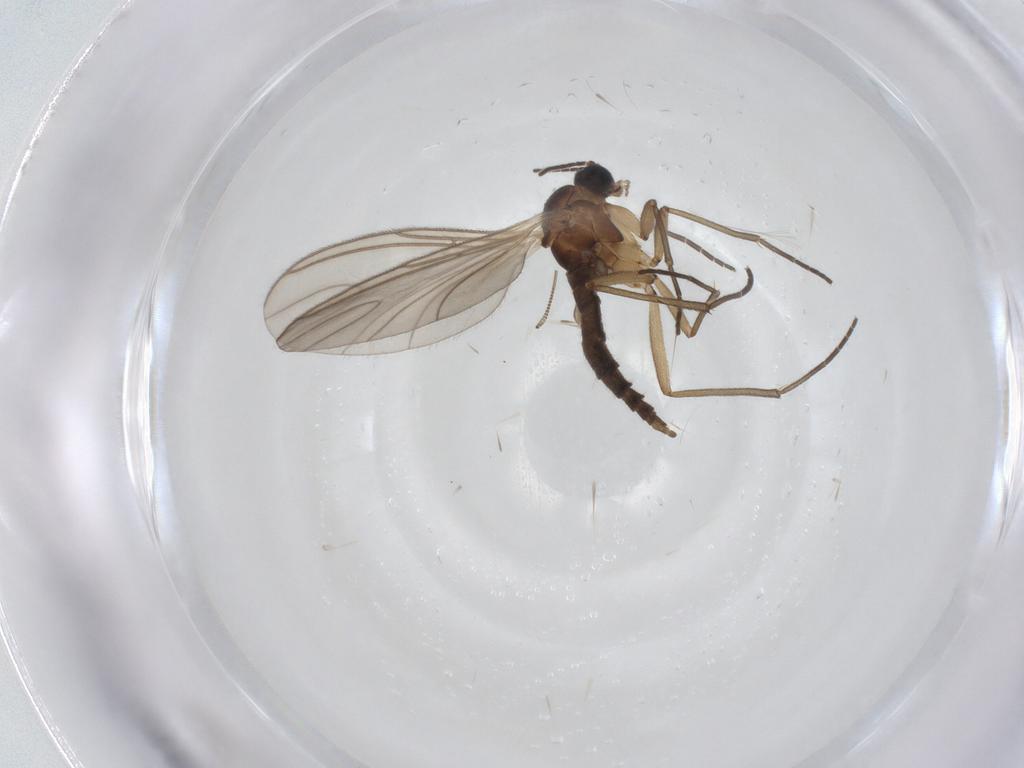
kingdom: Animalia
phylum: Arthropoda
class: Insecta
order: Diptera
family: Sciaridae
